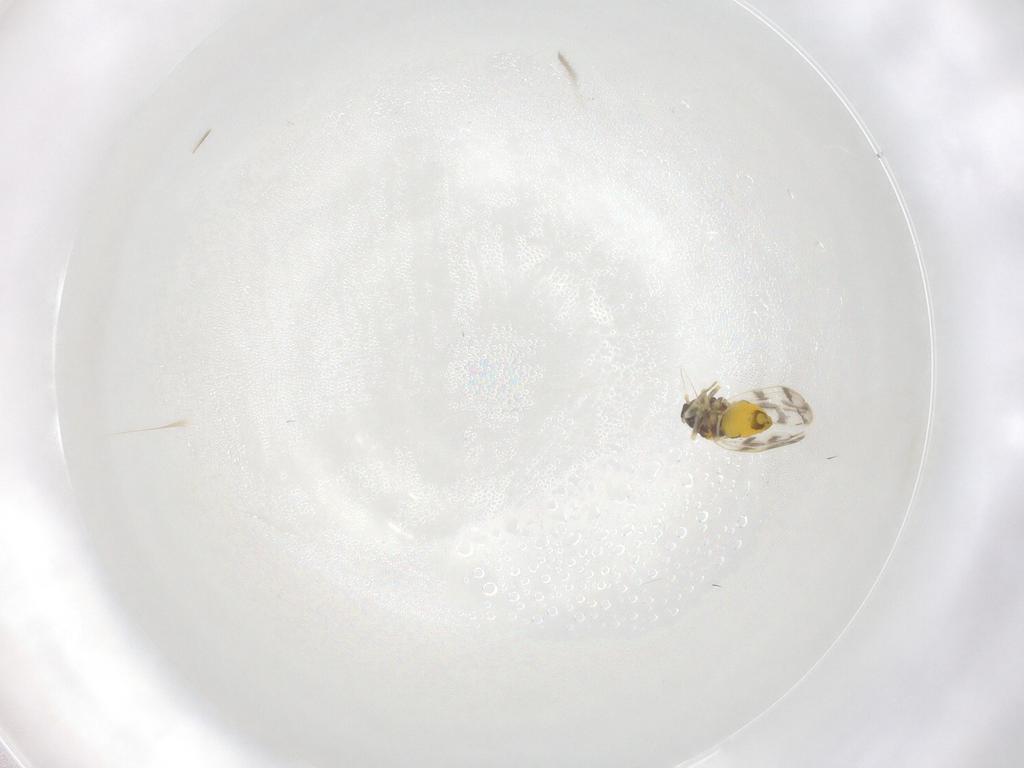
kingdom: Animalia
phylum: Arthropoda
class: Insecta
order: Hemiptera
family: Aleyrodidae
